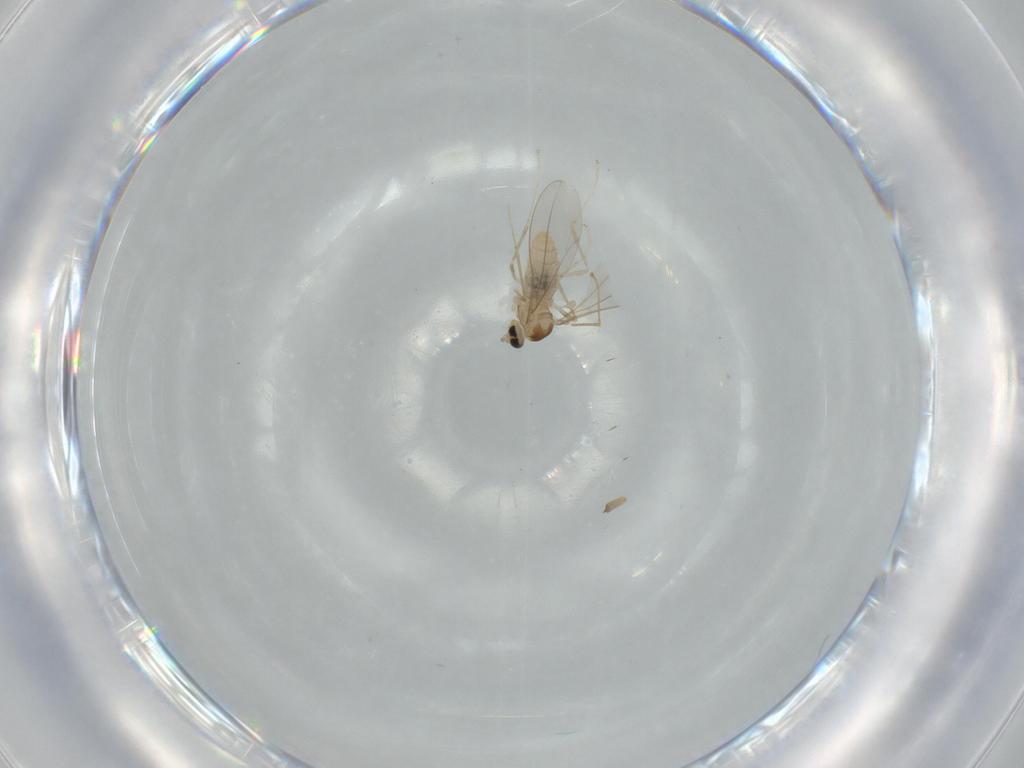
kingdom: Animalia
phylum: Arthropoda
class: Insecta
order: Diptera
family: Cecidomyiidae
